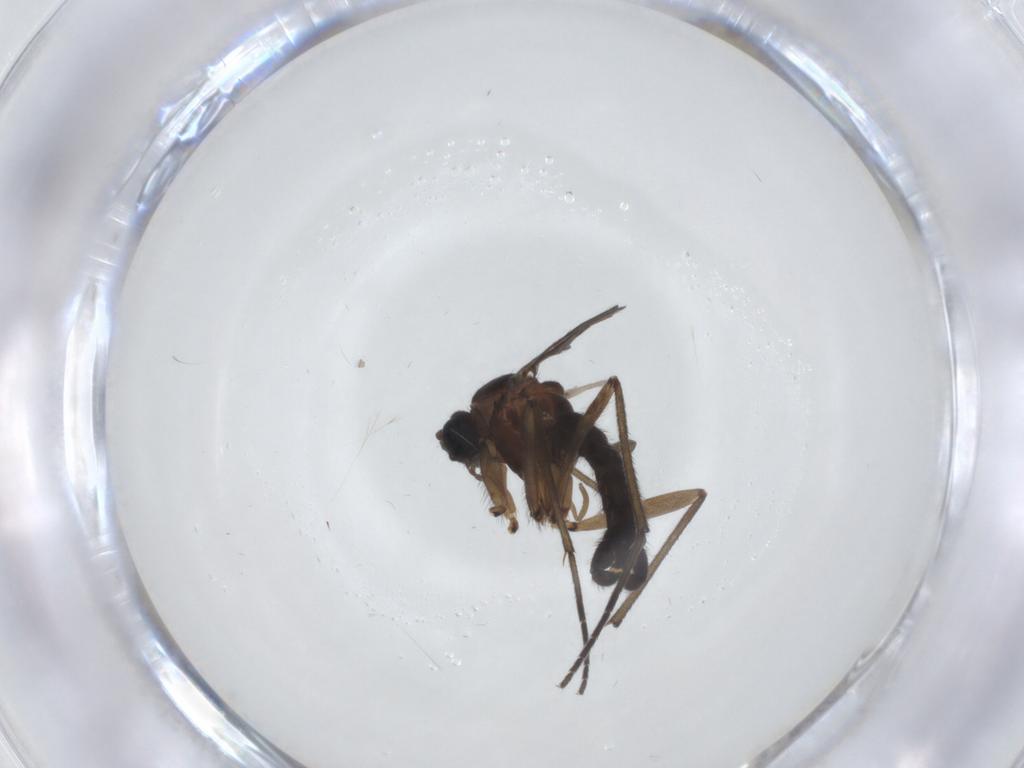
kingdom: Animalia
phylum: Arthropoda
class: Insecta
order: Diptera
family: Sciaridae
